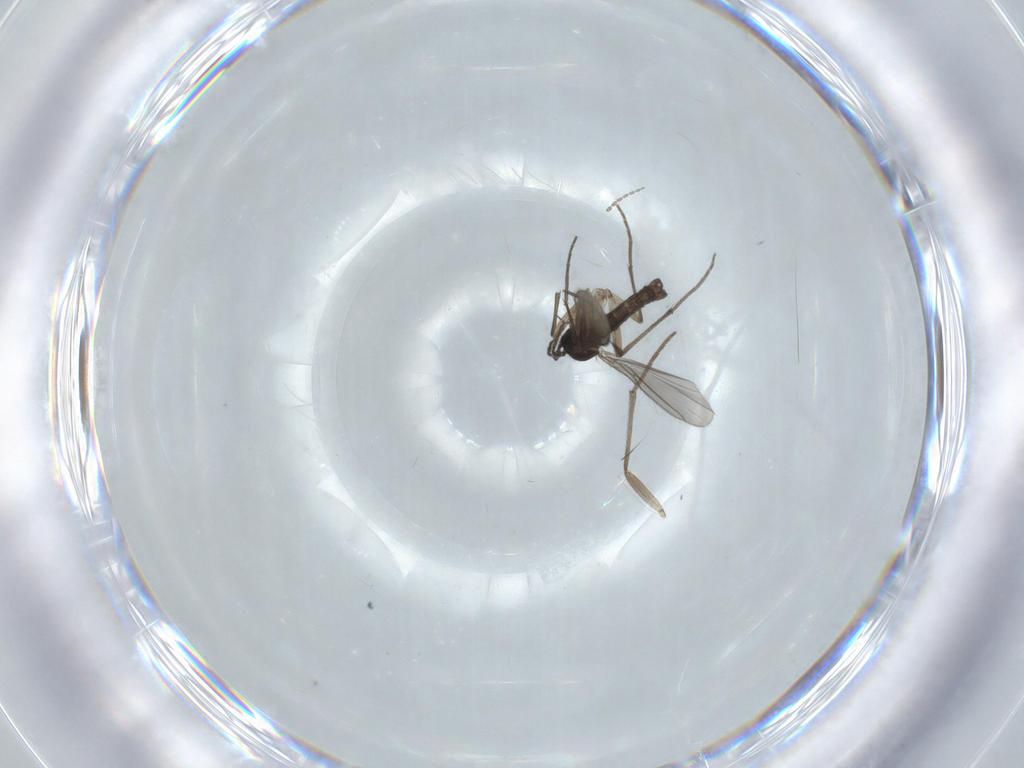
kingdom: Animalia
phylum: Arthropoda
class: Insecta
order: Diptera
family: Sciaridae
